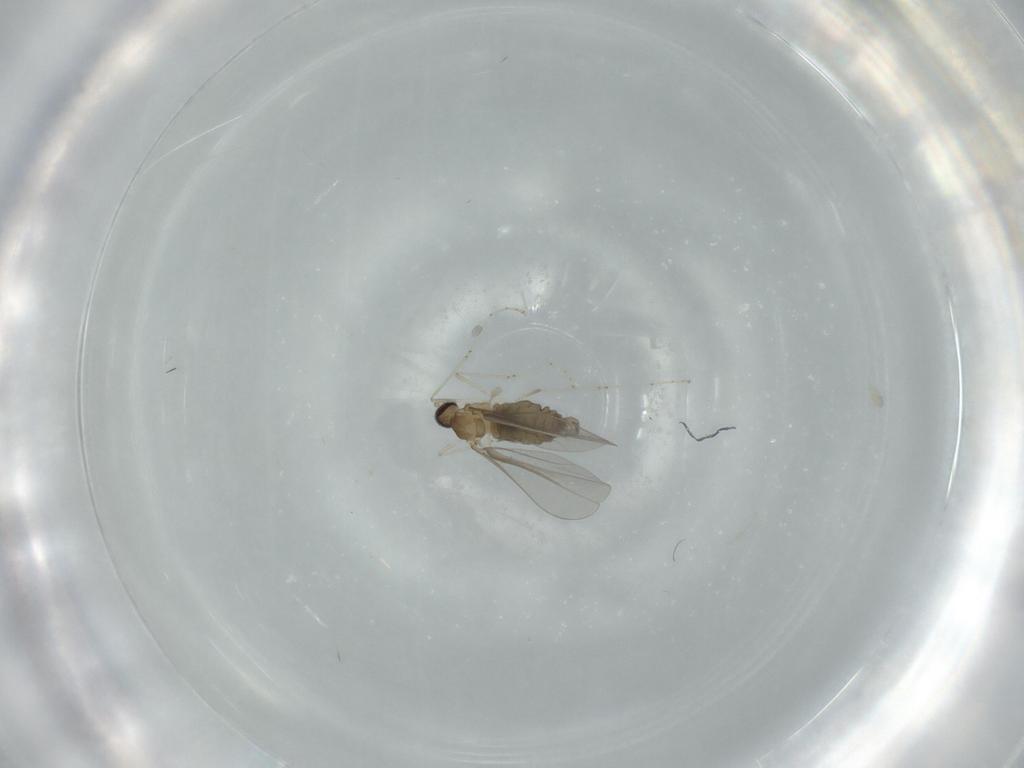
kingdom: Animalia
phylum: Arthropoda
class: Insecta
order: Diptera
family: Cecidomyiidae
